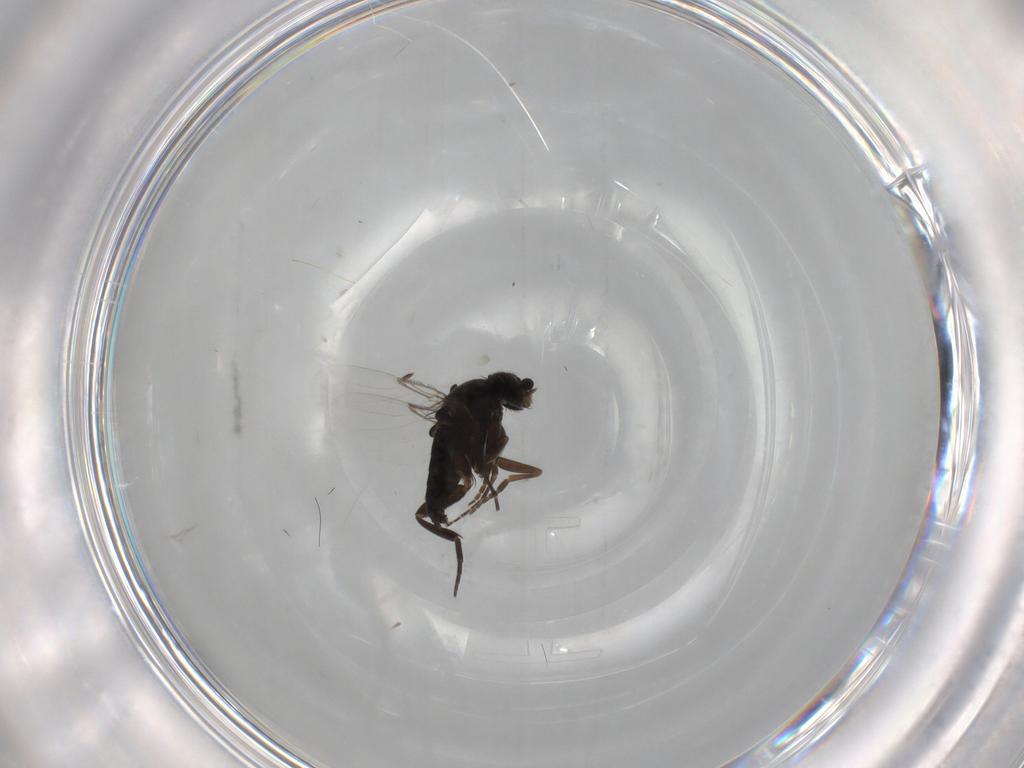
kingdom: Animalia
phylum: Arthropoda
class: Insecta
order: Diptera
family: Phoridae
